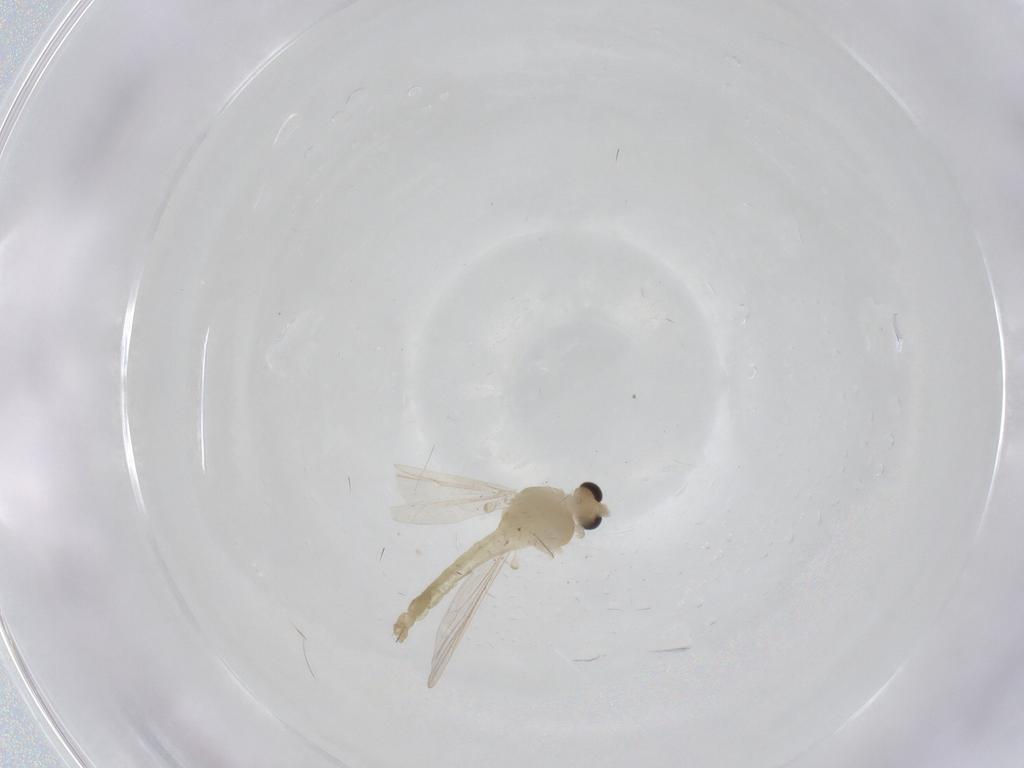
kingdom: Animalia
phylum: Arthropoda
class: Insecta
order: Diptera
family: Chironomidae
